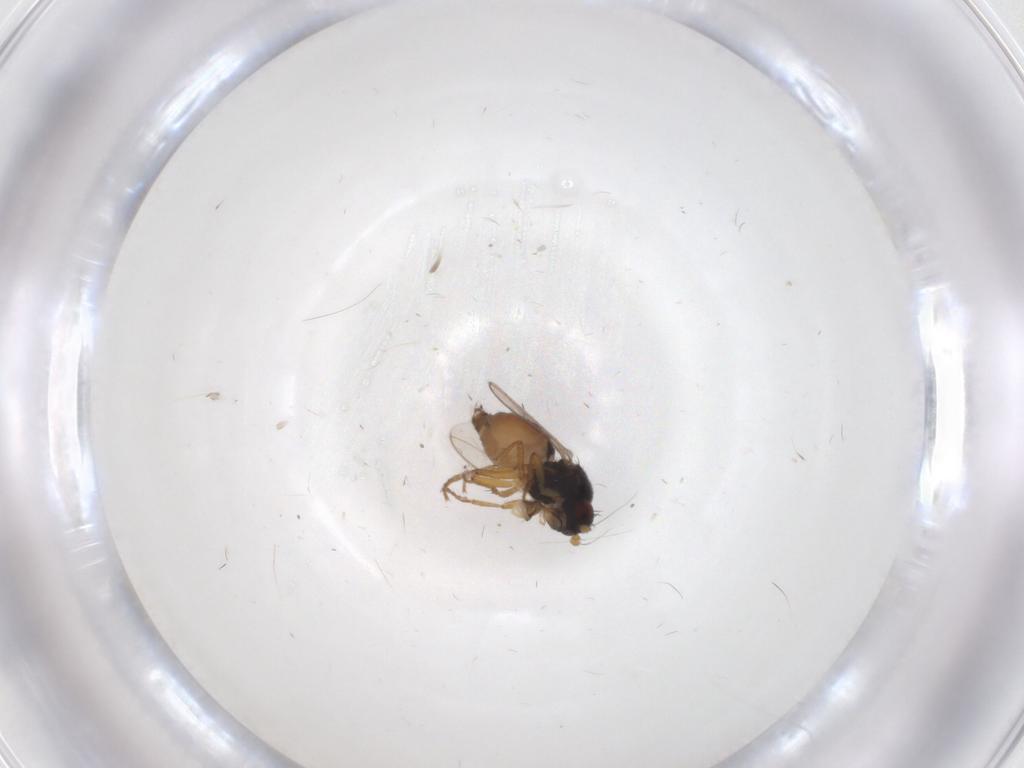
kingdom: Animalia
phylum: Arthropoda
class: Insecta
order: Diptera
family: Sphaeroceridae
